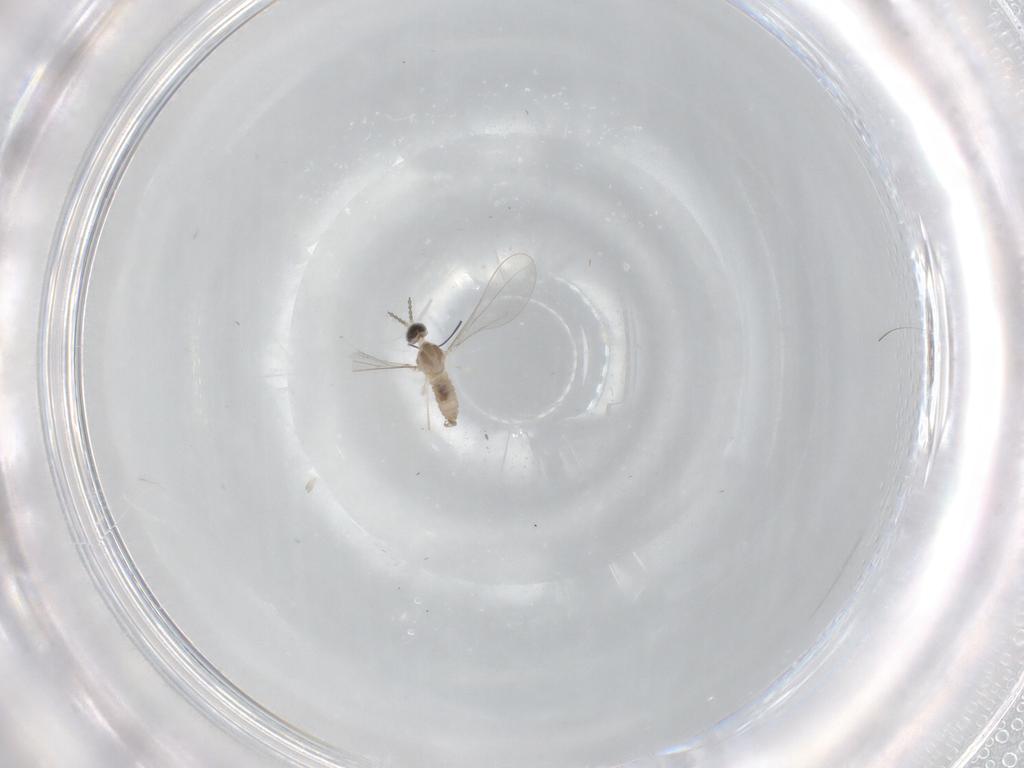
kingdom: Animalia
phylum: Arthropoda
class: Insecta
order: Diptera
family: Cecidomyiidae
